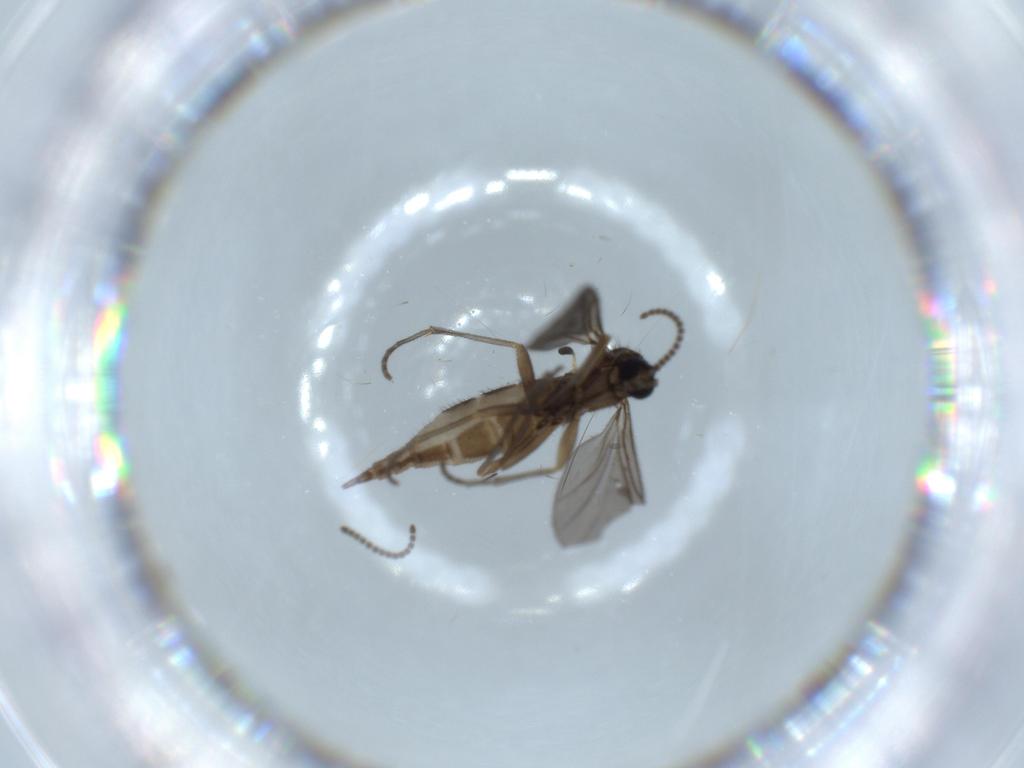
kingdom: Animalia
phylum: Arthropoda
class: Insecta
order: Diptera
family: Sciaridae
